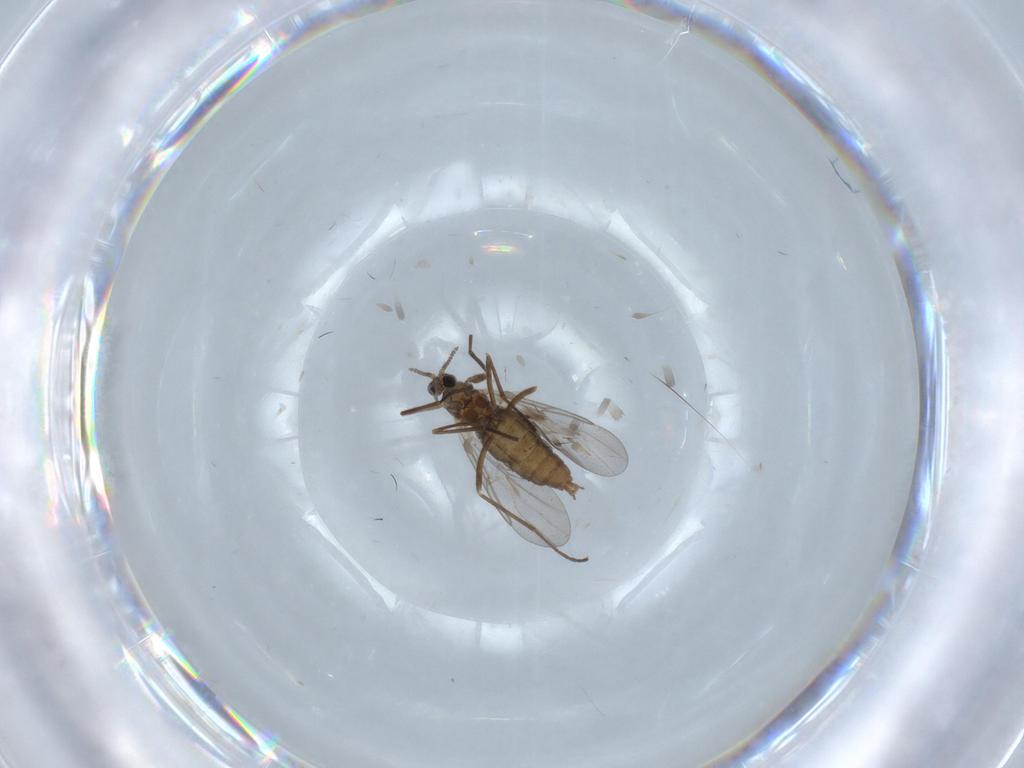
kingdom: Animalia
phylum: Arthropoda
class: Insecta
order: Diptera
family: Cecidomyiidae
